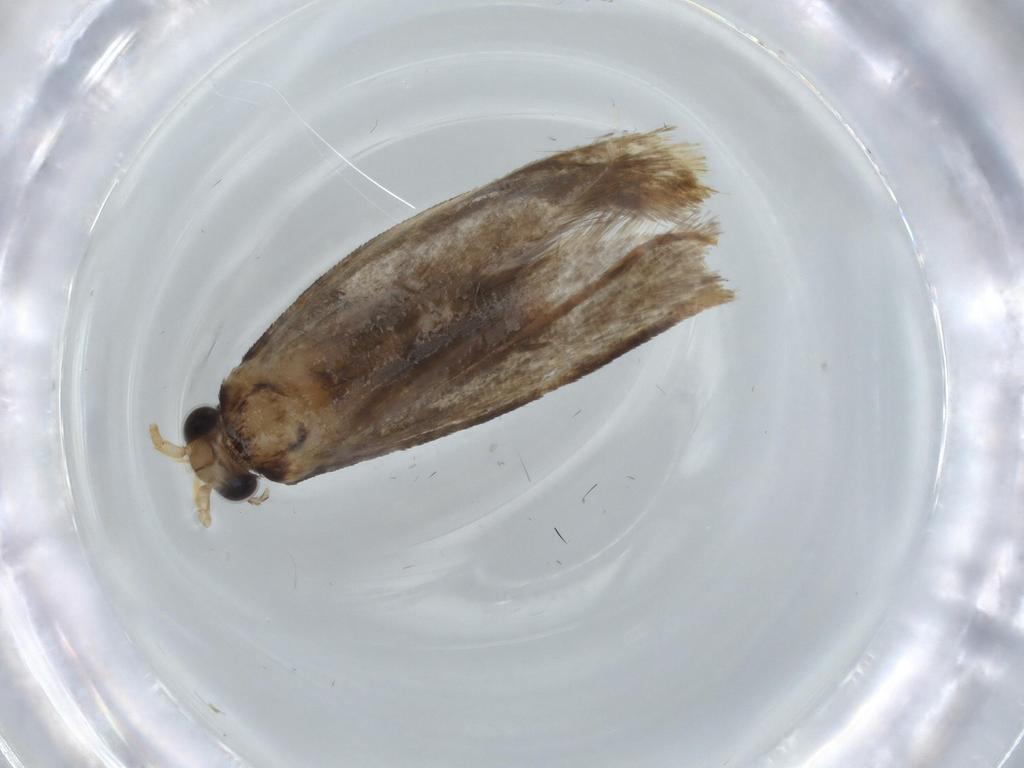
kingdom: Animalia
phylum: Arthropoda
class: Insecta
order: Lepidoptera
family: Tineidae
